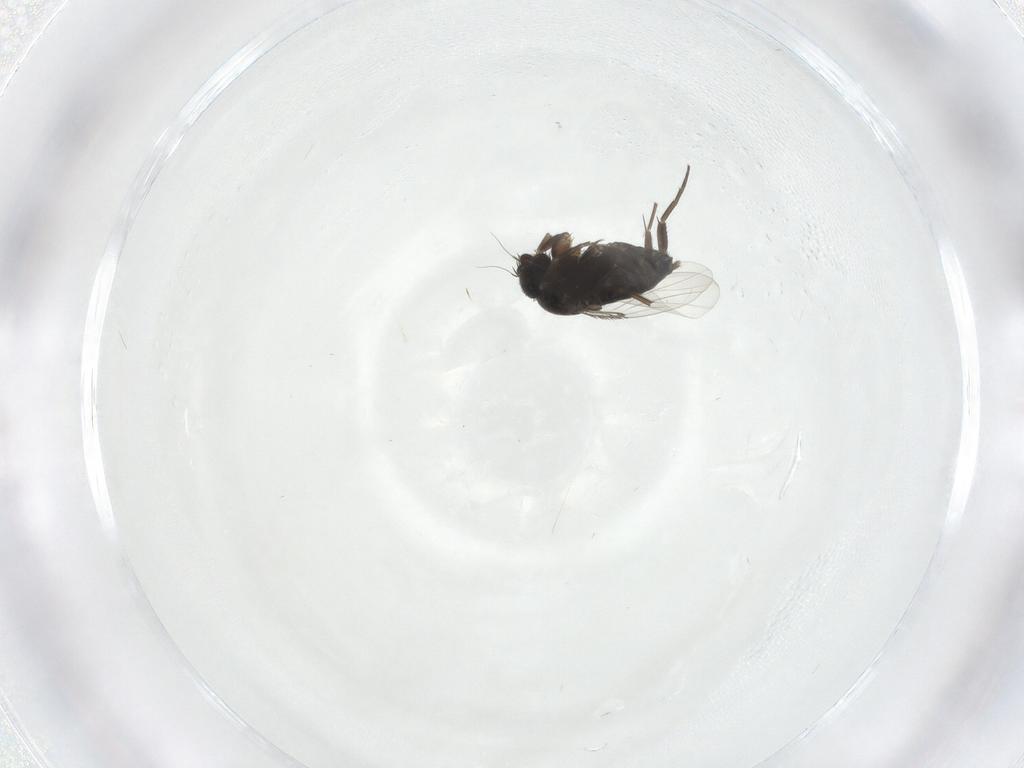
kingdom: Animalia
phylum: Arthropoda
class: Insecta
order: Diptera
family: Phoridae
